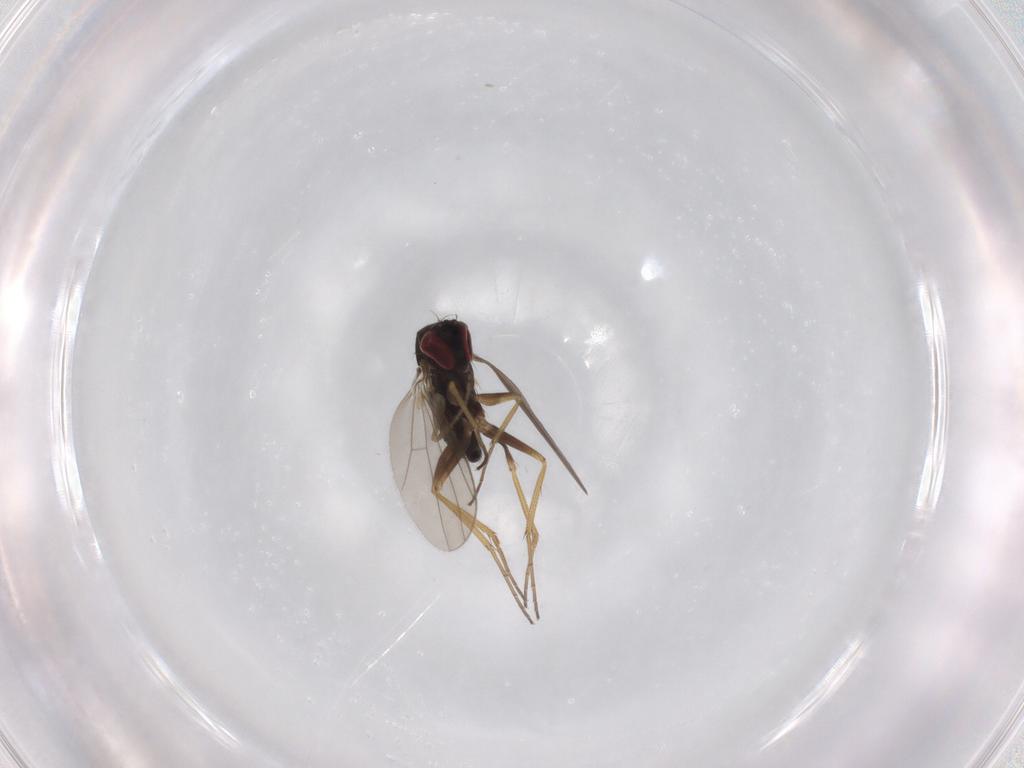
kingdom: Animalia
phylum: Arthropoda
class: Insecta
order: Diptera
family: Phoridae
